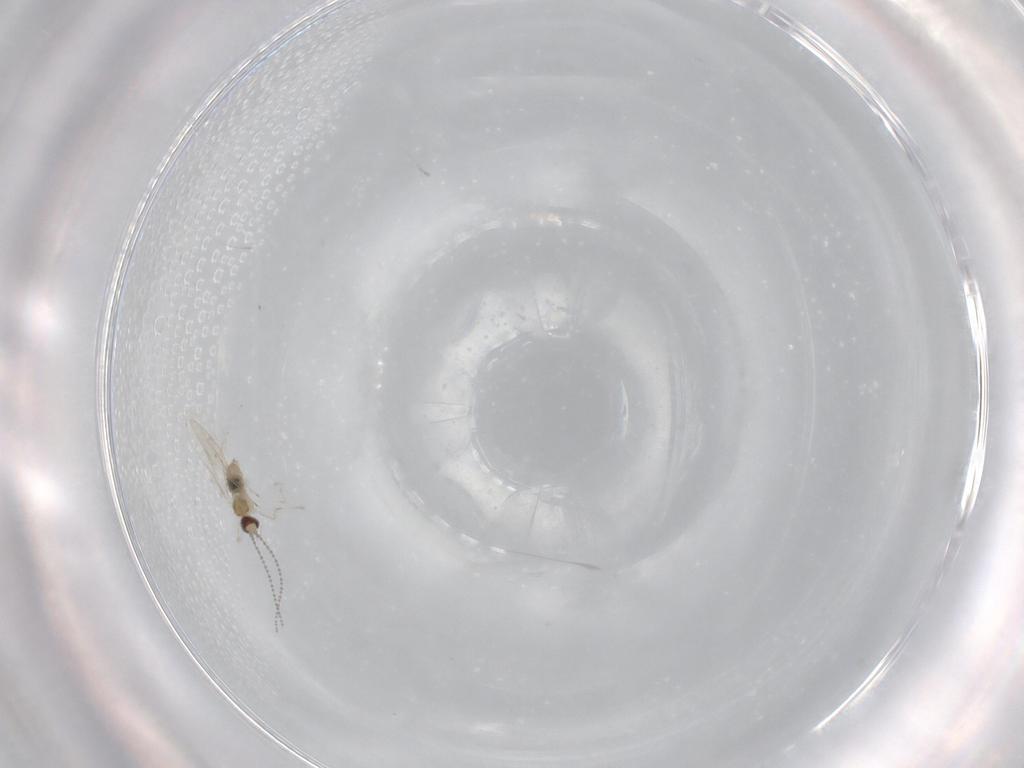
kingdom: Animalia
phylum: Arthropoda
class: Insecta
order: Diptera
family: Cecidomyiidae
